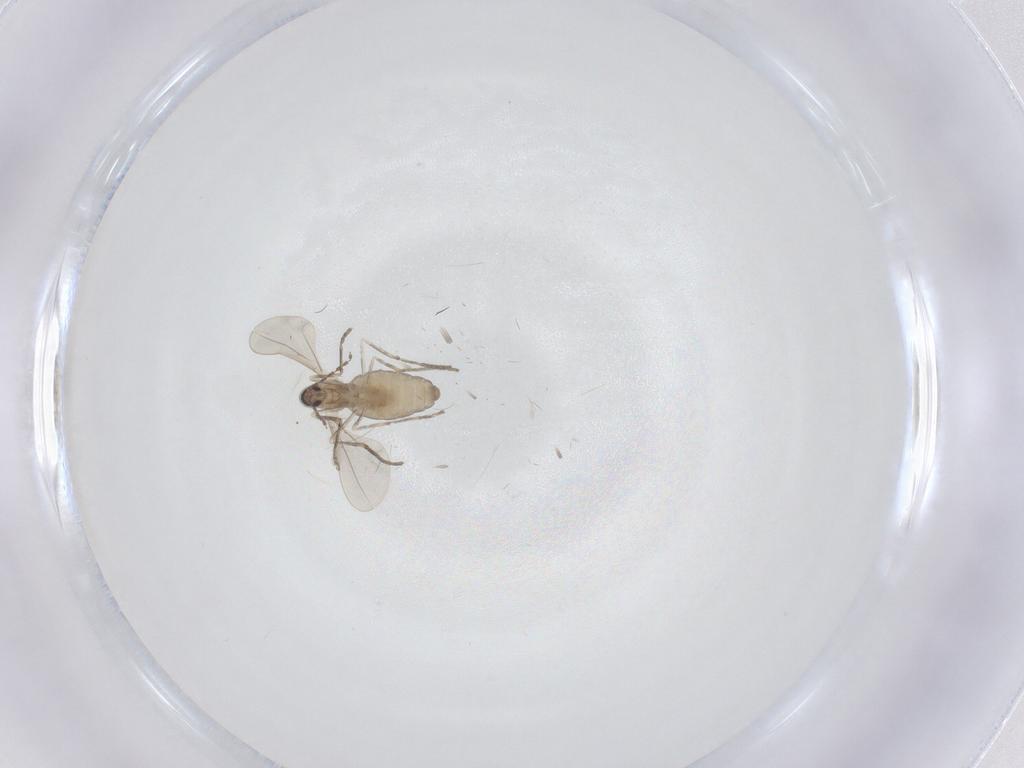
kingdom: Animalia
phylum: Arthropoda
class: Insecta
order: Diptera
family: Cecidomyiidae
